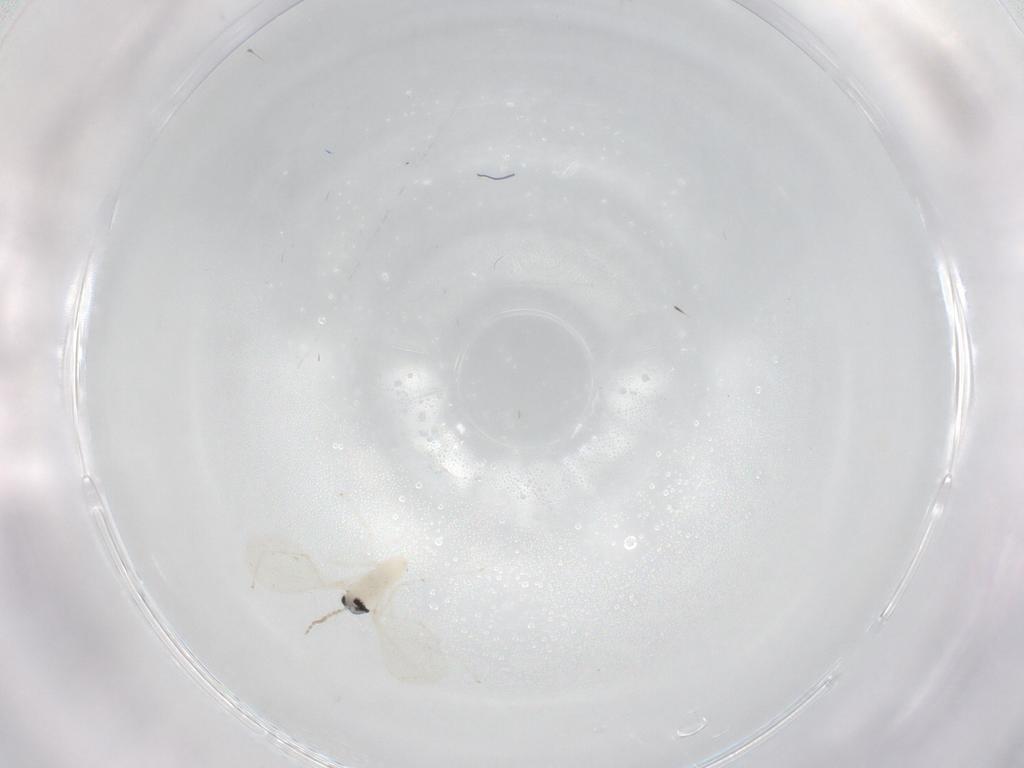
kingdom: Animalia
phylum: Arthropoda
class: Insecta
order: Diptera
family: Cecidomyiidae
